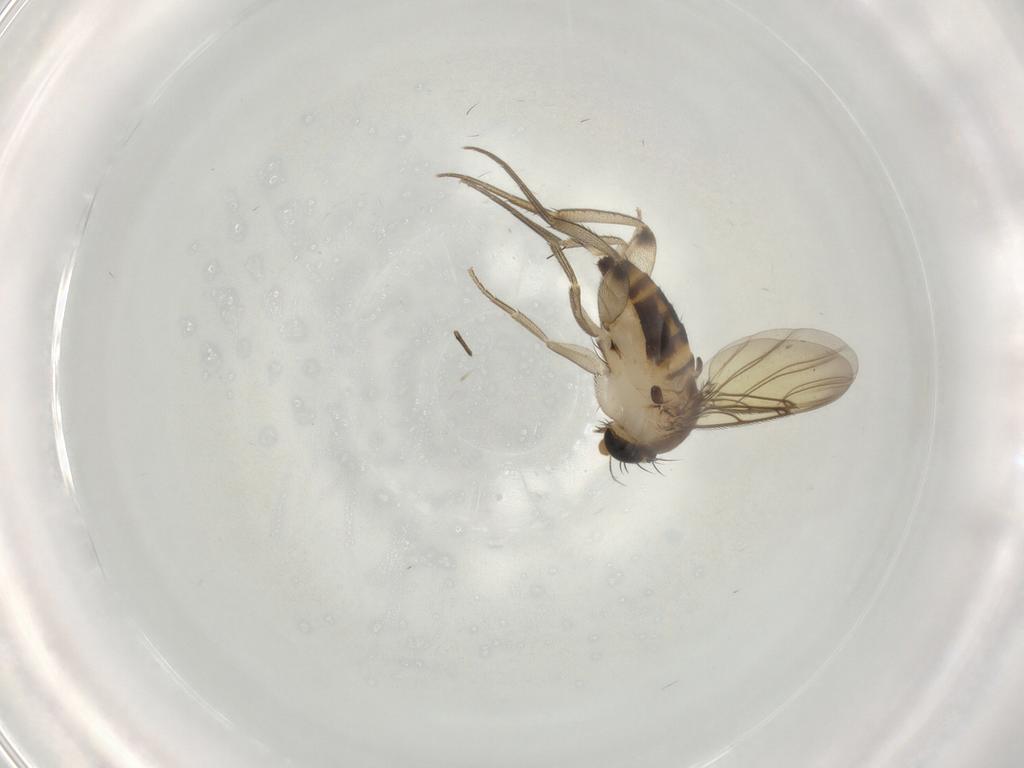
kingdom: Animalia
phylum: Arthropoda
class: Insecta
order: Diptera
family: Phoridae
